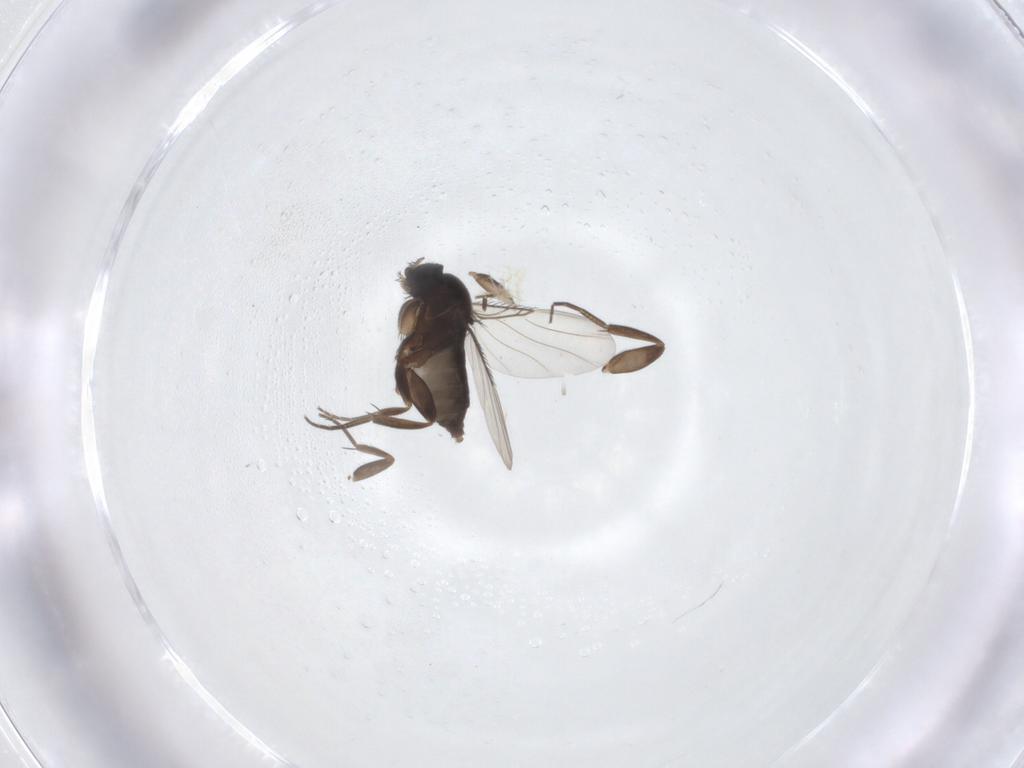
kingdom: Animalia
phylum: Arthropoda
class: Insecta
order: Diptera
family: Phoridae
